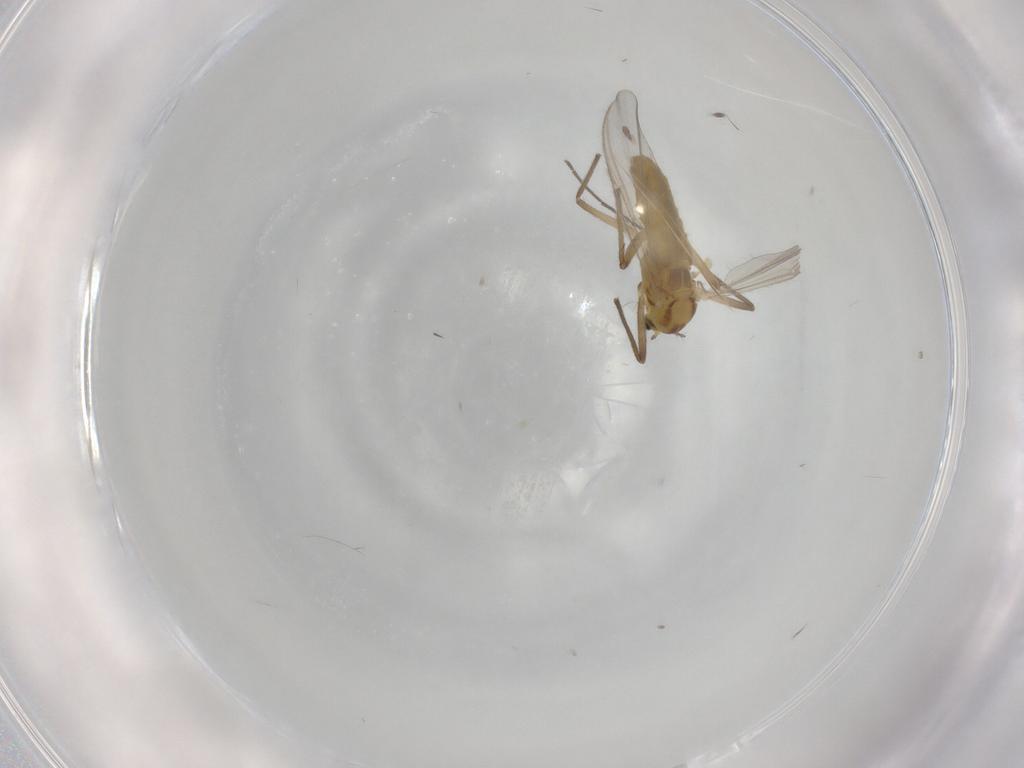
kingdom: Animalia
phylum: Arthropoda
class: Insecta
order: Diptera
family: Chironomidae
